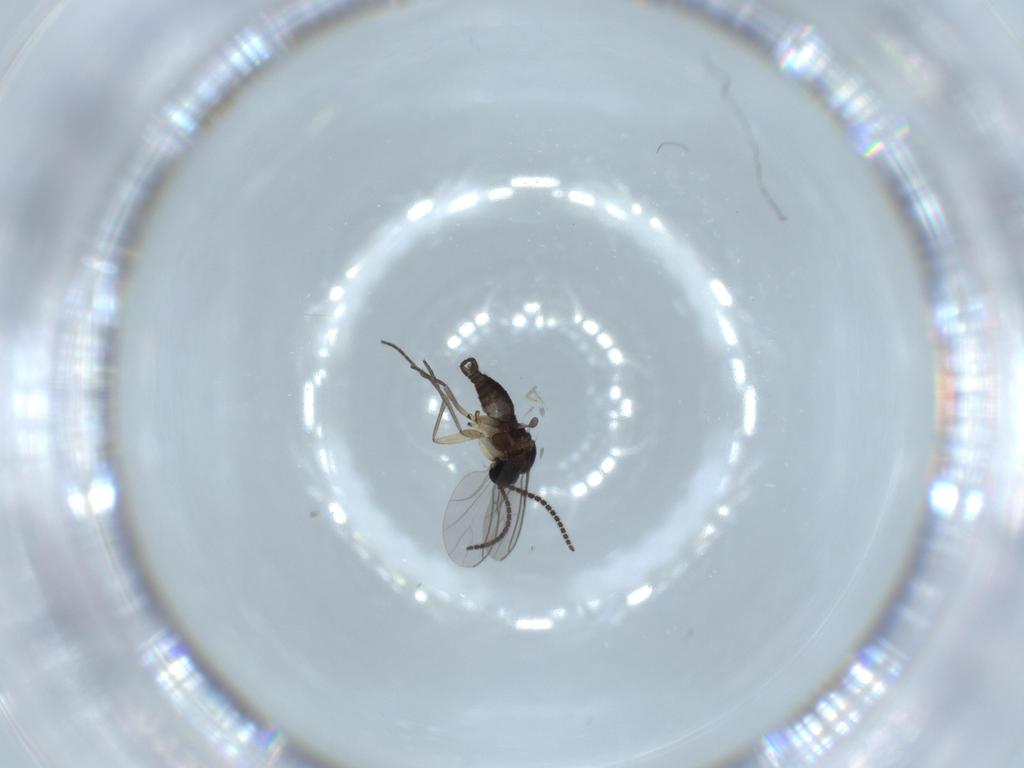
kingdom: Animalia
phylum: Arthropoda
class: Insecta
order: Diptera
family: Sciaridae
